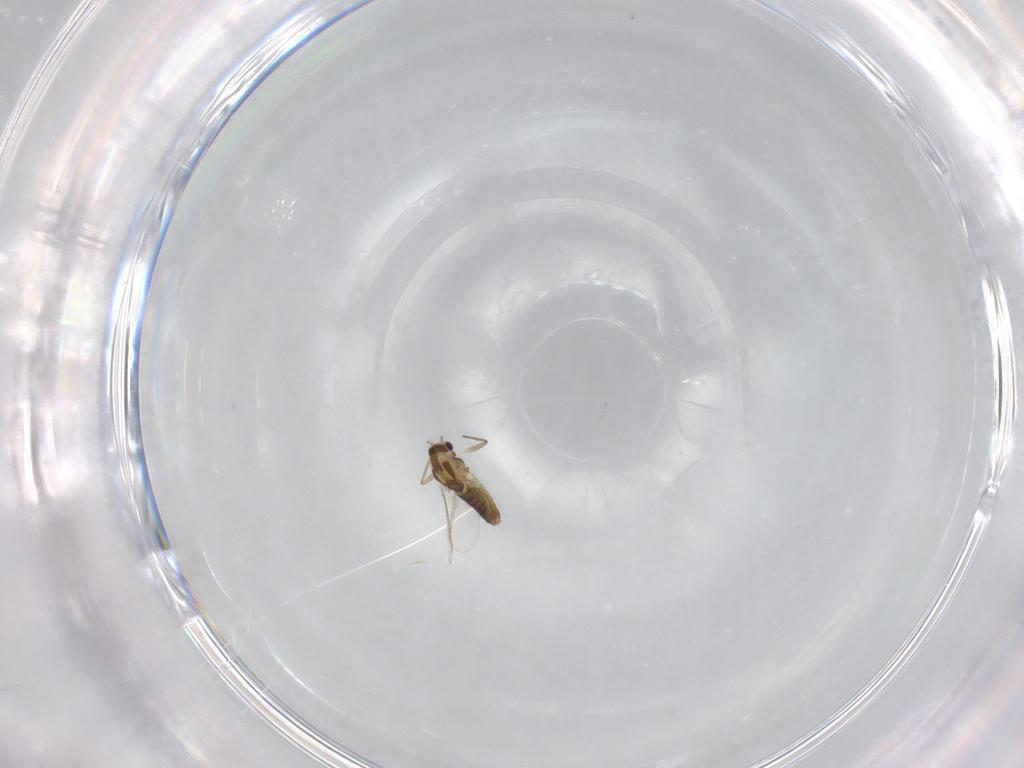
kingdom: Animalia
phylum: Arthropoda
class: Insecta
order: Diptera
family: Chironomidae
